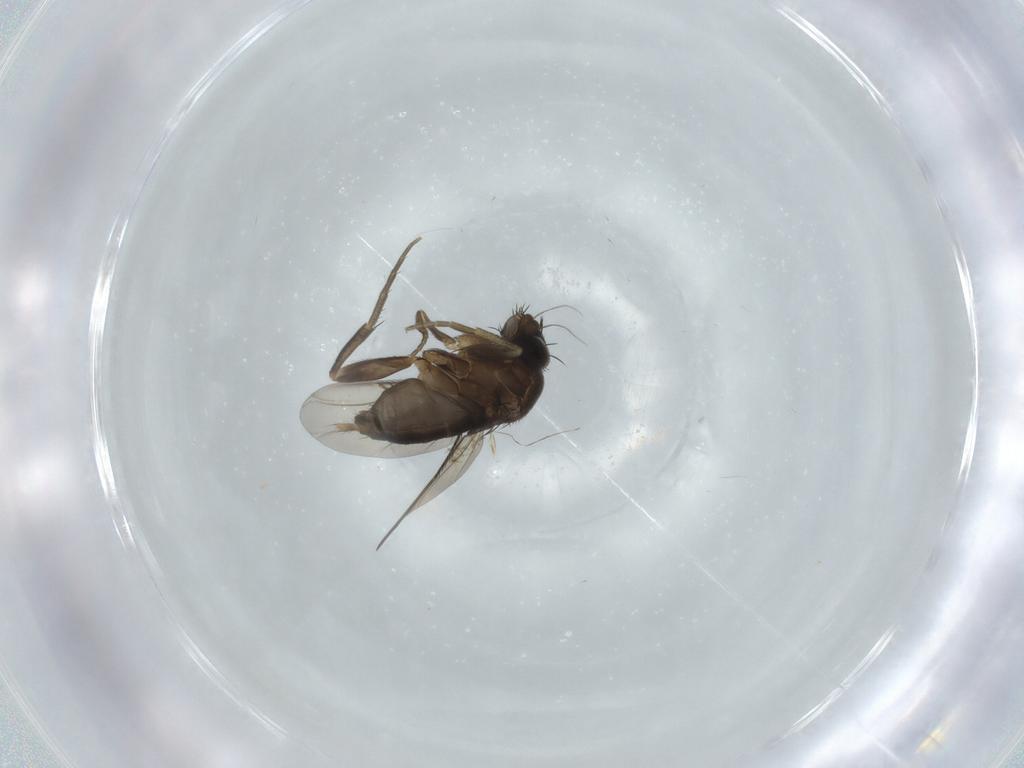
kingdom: Animalia
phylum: Arthropoda
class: Insecta
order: Diptera
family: Phoridae
